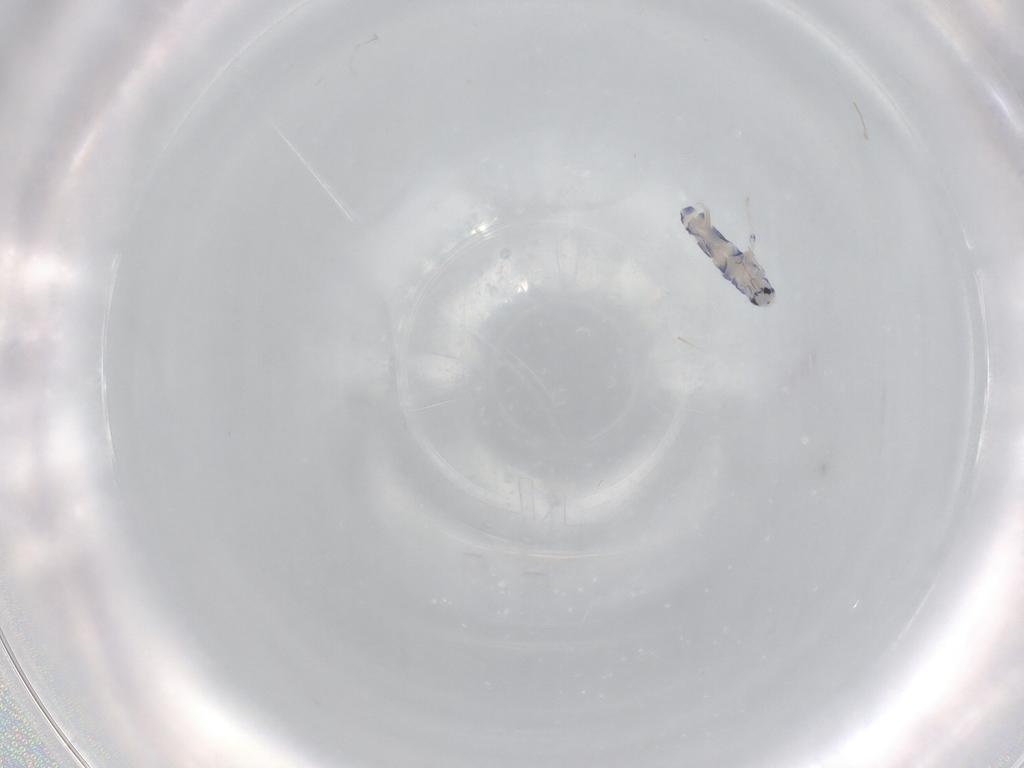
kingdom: Animalia
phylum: Arthropoda
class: Collembola
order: Entomobryomorpha
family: Entomobryidae
